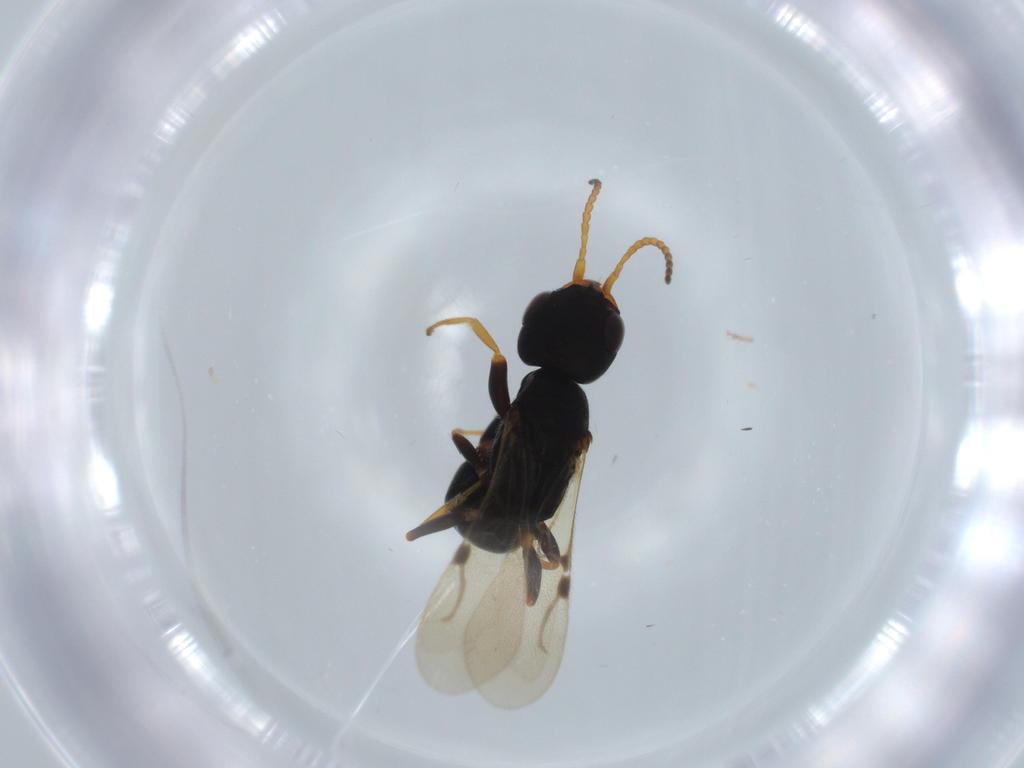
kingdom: Animalia
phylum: Arthropoda
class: Insecta
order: Hymenoptera
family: Bethylidae
